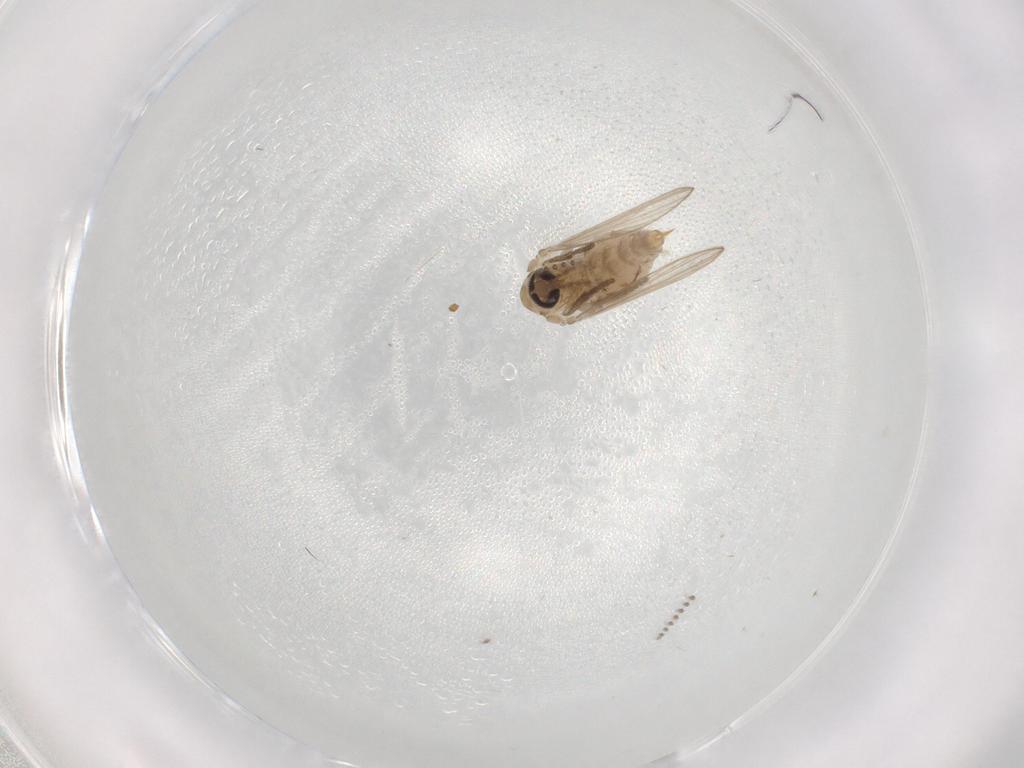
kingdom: Animalia
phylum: Arthropoda
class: Insecta
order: Diptera
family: Psychodidae
